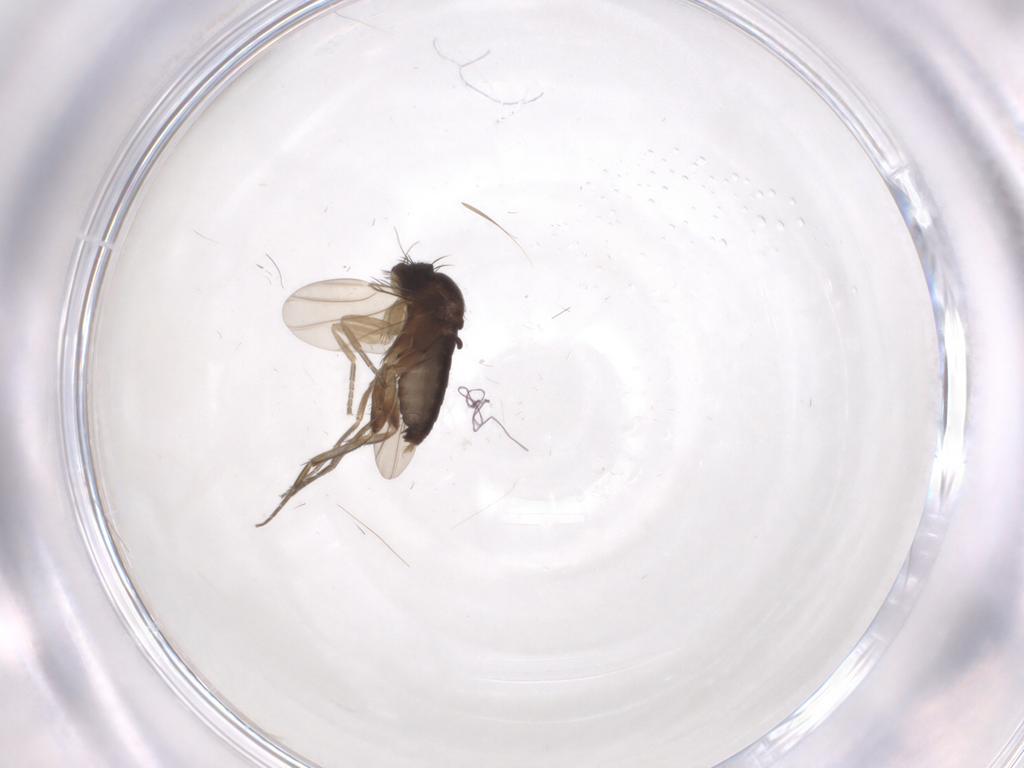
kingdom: Animalia
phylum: Arthropoda
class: Insecta
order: Diptera
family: Phoridae
